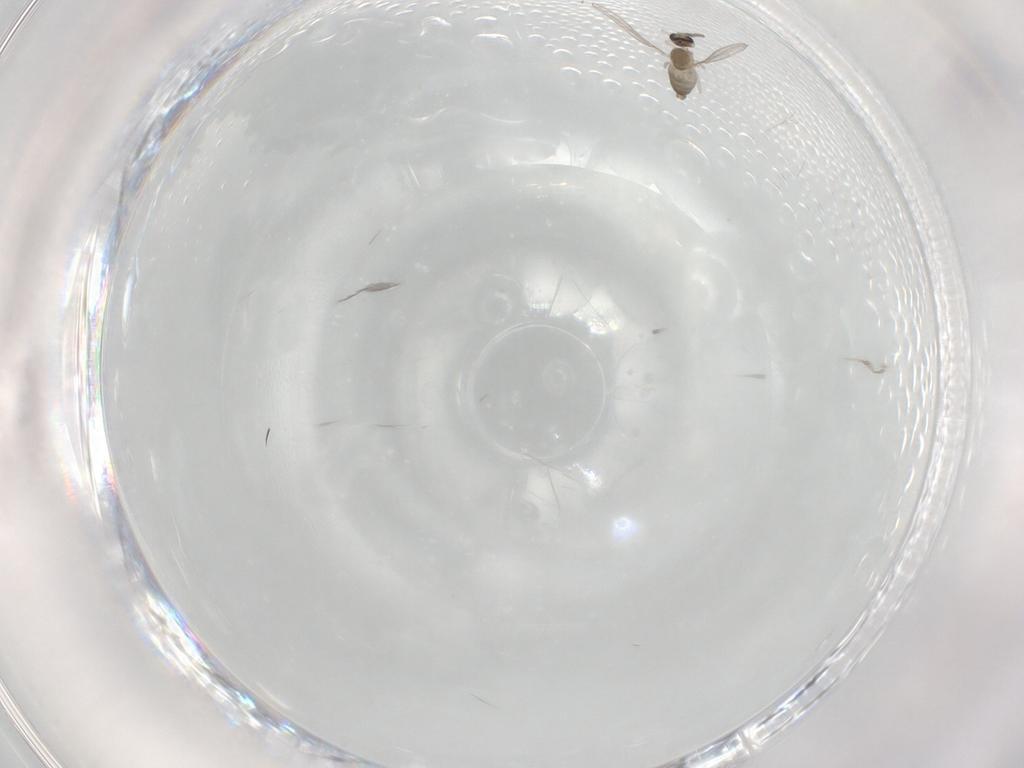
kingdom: Animalia
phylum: Arthropoda
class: Insecta
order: Diptera
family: Cecidomyiidae
